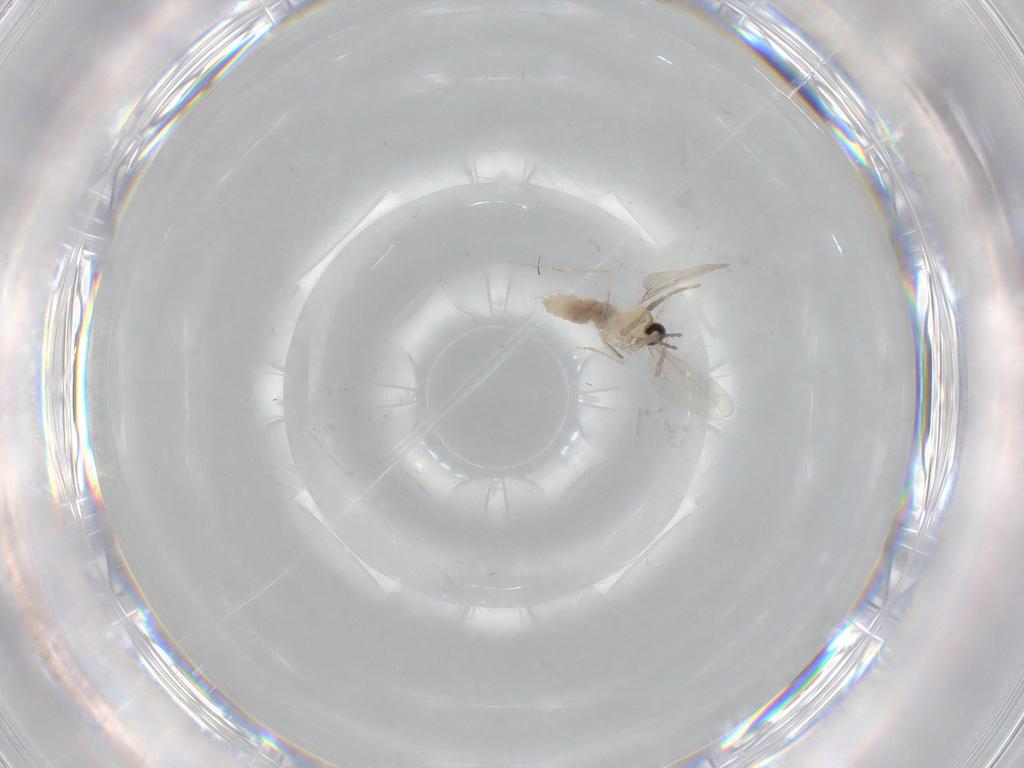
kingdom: Animalia
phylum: Arthropoda
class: Insecta
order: Diptera
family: Cecidomyiidae
